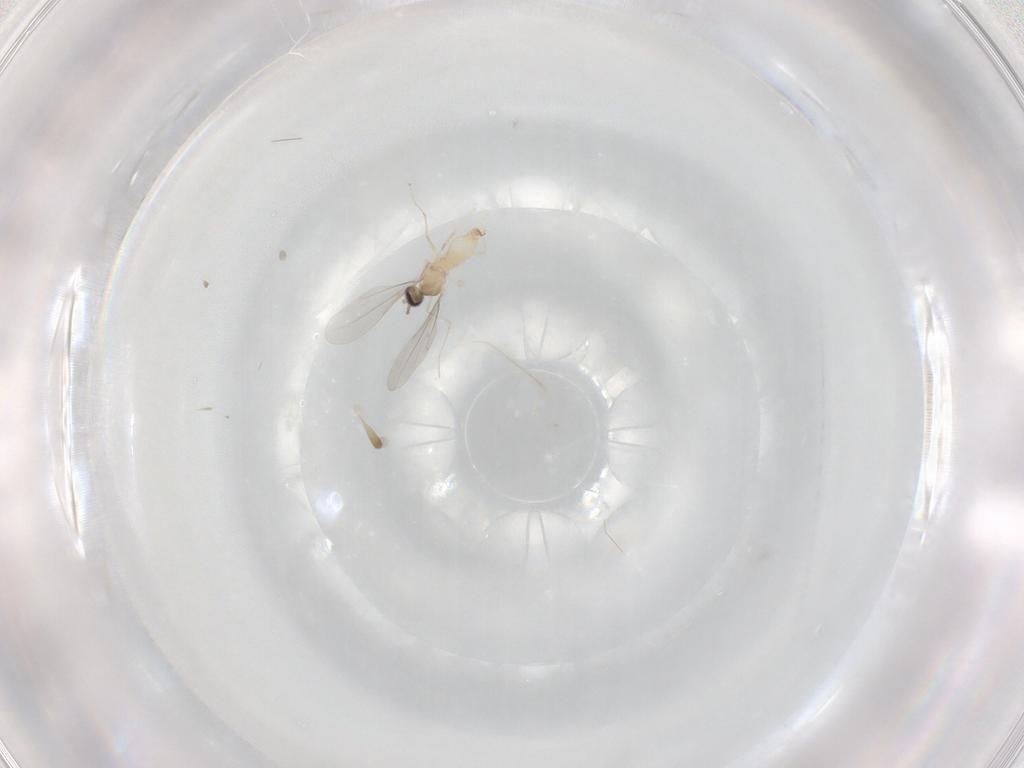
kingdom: Animalia
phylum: Arthropoda
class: Insecta
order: Diptera
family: Cecidomyiidae
